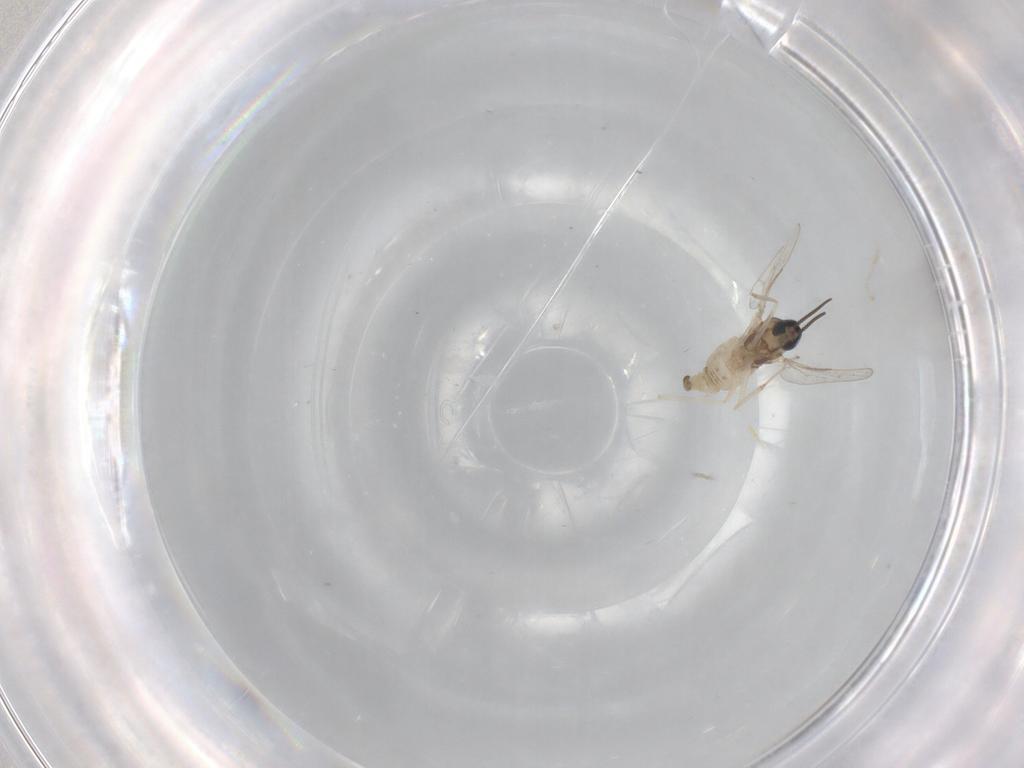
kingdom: Animalia
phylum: Arthropoda
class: Insecta
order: Diptera
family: Cecidomyiidae
